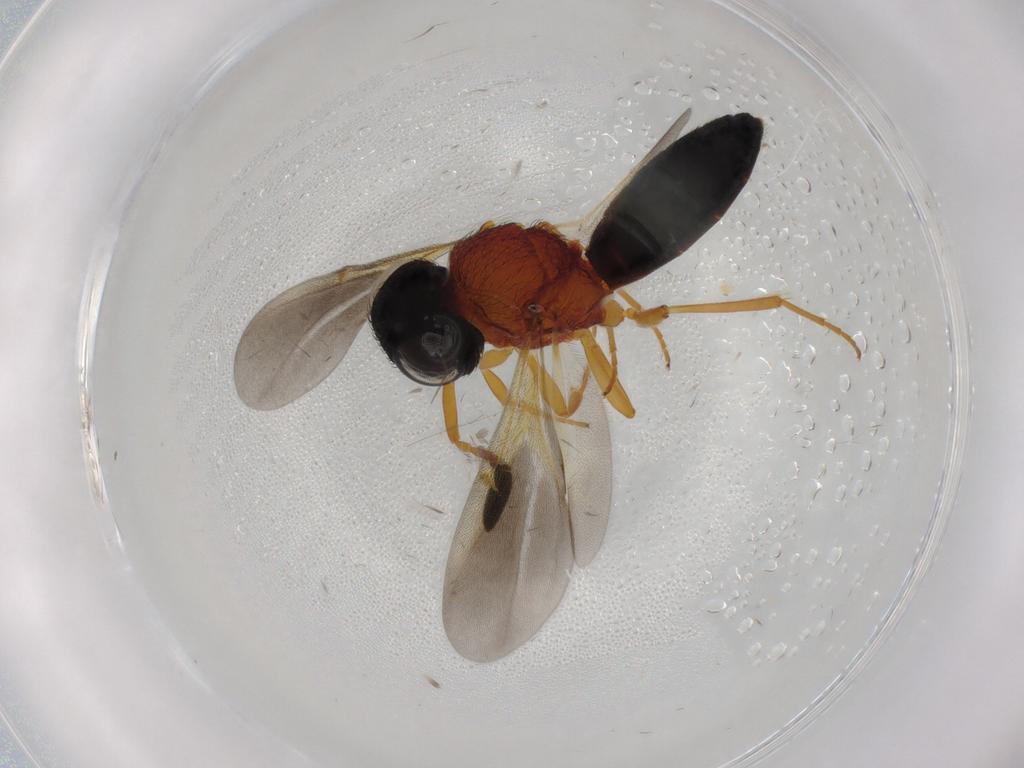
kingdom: Animalia
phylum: Arthropoda
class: Insecta
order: Hymenoptera
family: Scelionidae
